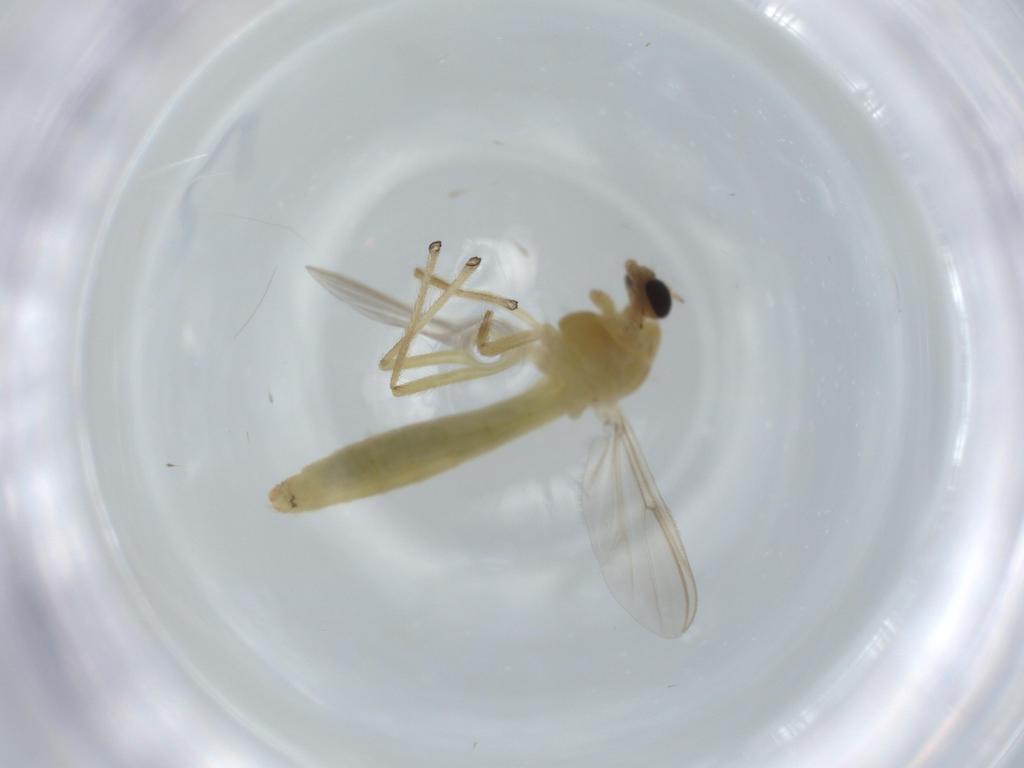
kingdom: Animalia
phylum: Arthropoda
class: Insecta
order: Diptera
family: Chironomidae
